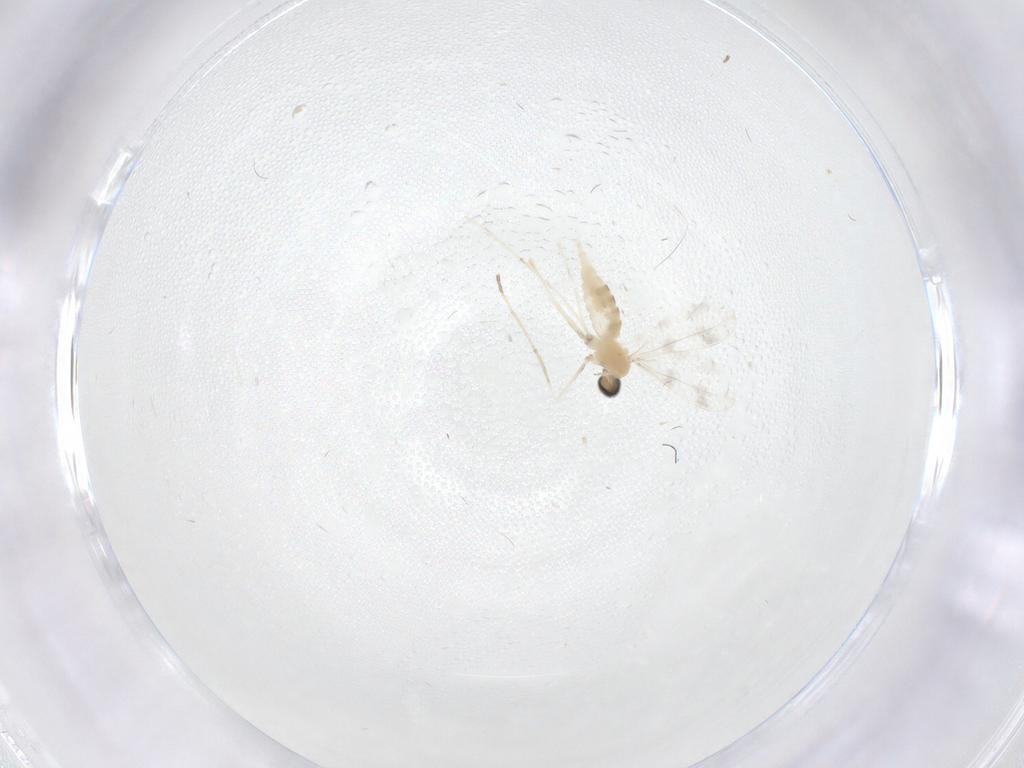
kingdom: Animalia
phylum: Arthropoda
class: Insecta
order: Diptera
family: Cecidomyiidae
